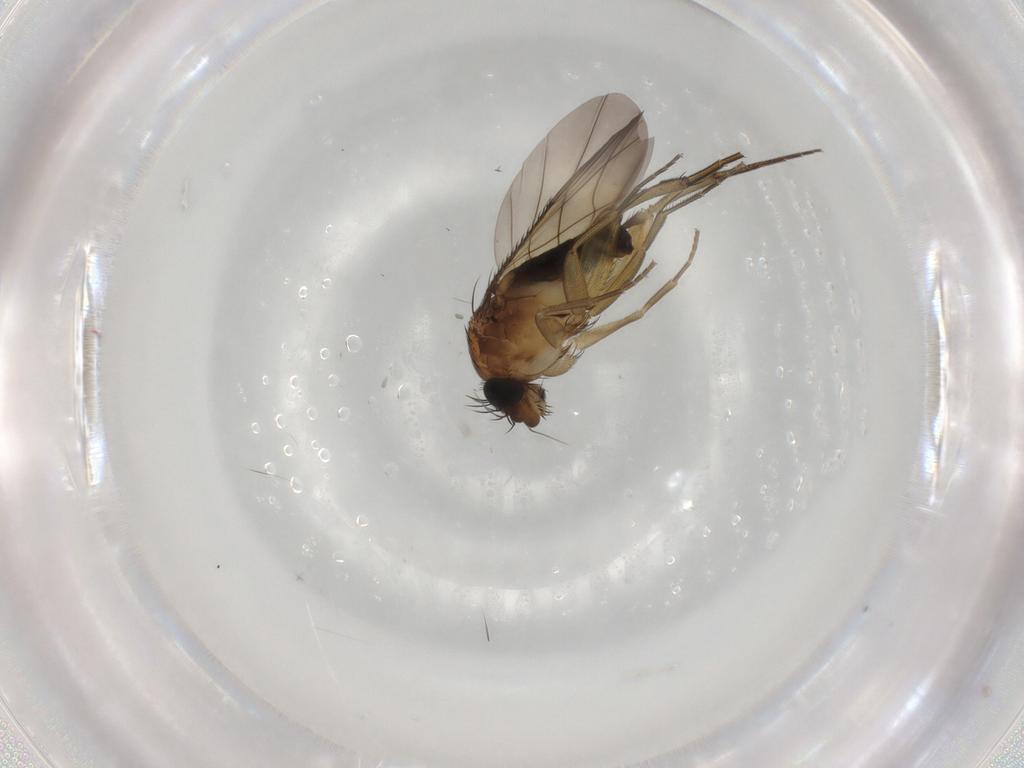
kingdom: Animalia
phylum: Arthropoda
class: Insecta
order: Diptera
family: Phoridae
